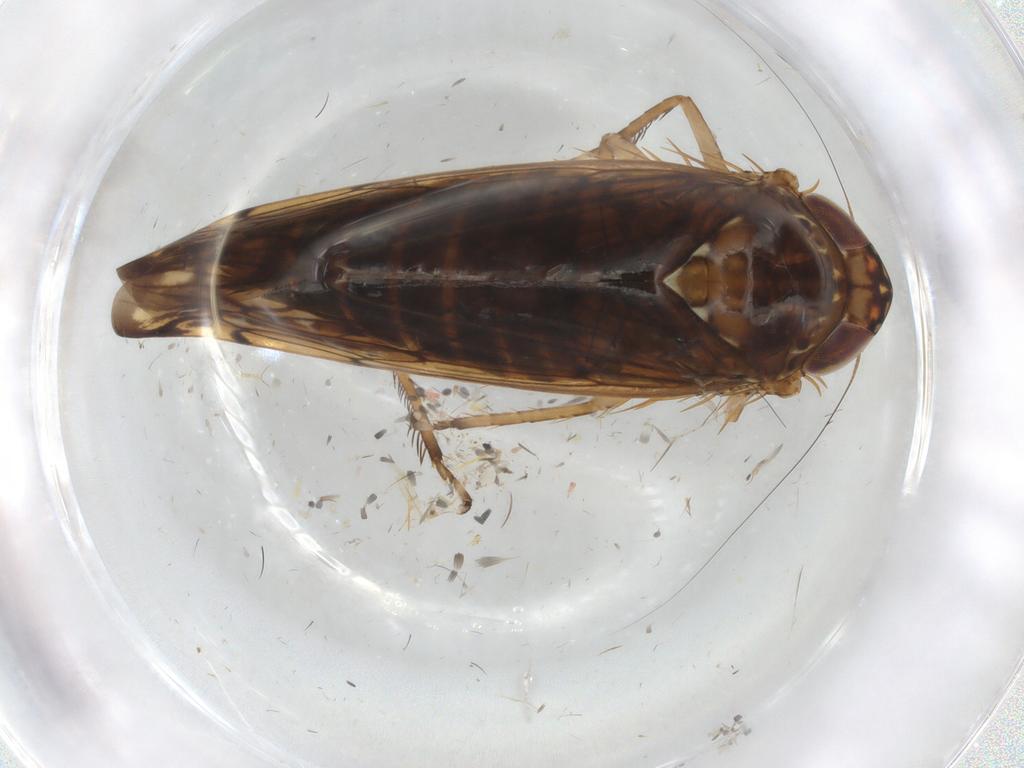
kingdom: Animalia
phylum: Arthropoda
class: Insecta
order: Hemiptera
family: Cicadellidae
